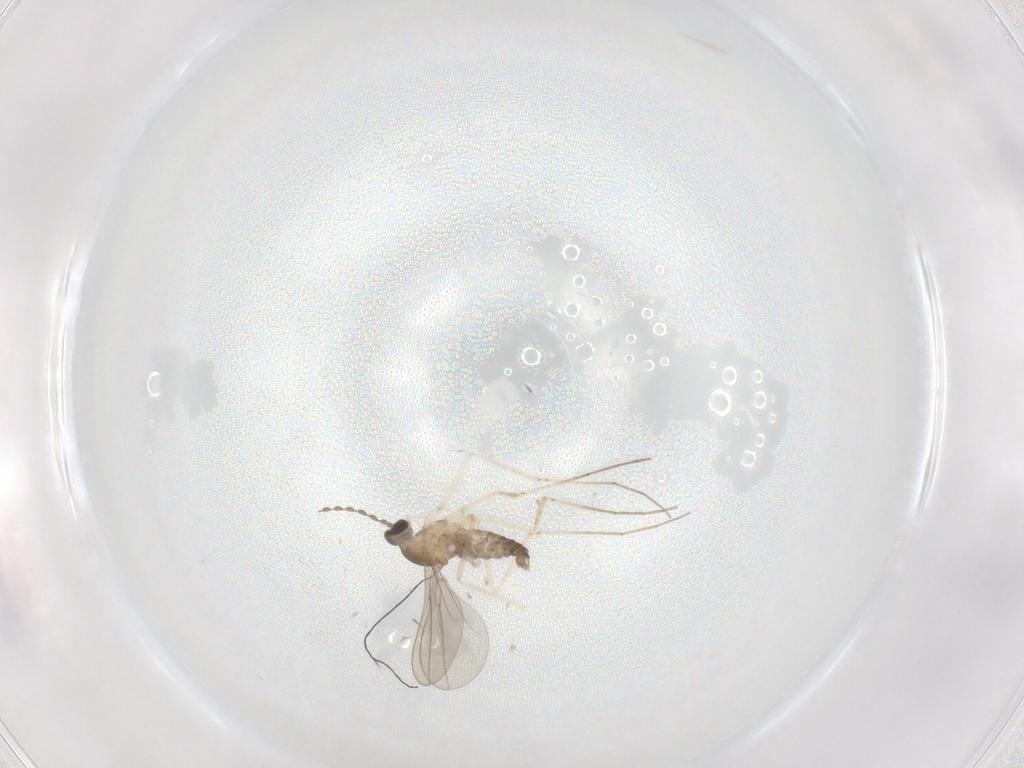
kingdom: Animalia
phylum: Arthropoda
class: Insecta
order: Diptera
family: Cecidomyiidae
